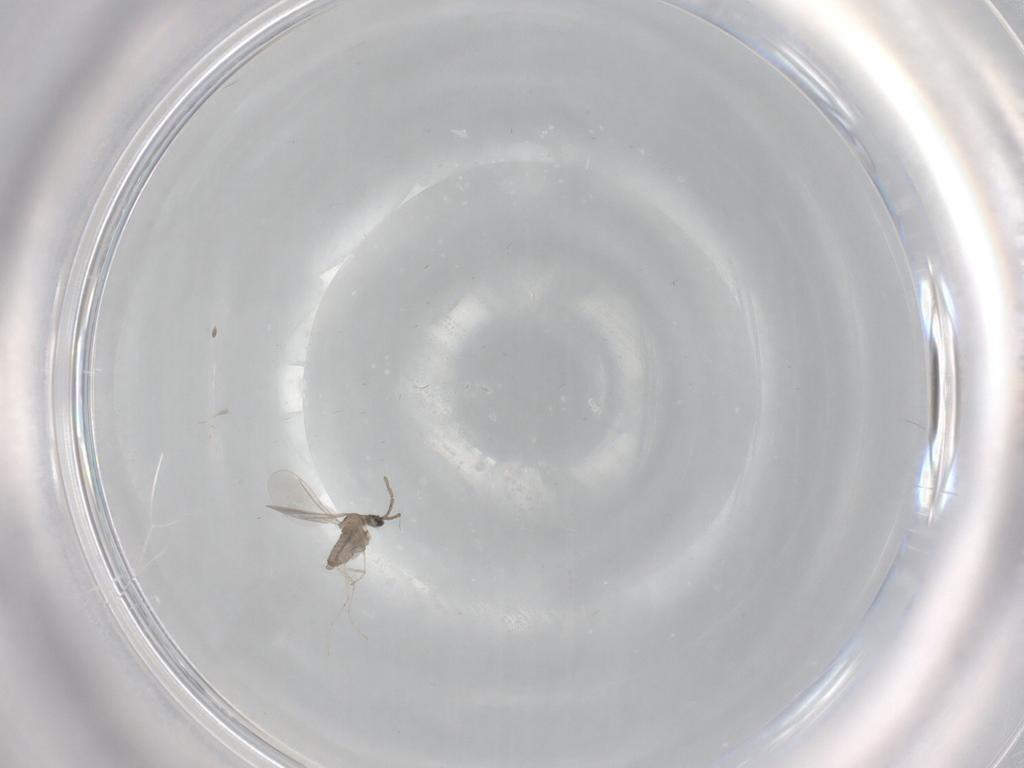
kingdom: Animalia
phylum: Arthropoda
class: Insecta
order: Diptera
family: Cecidomyiidae
